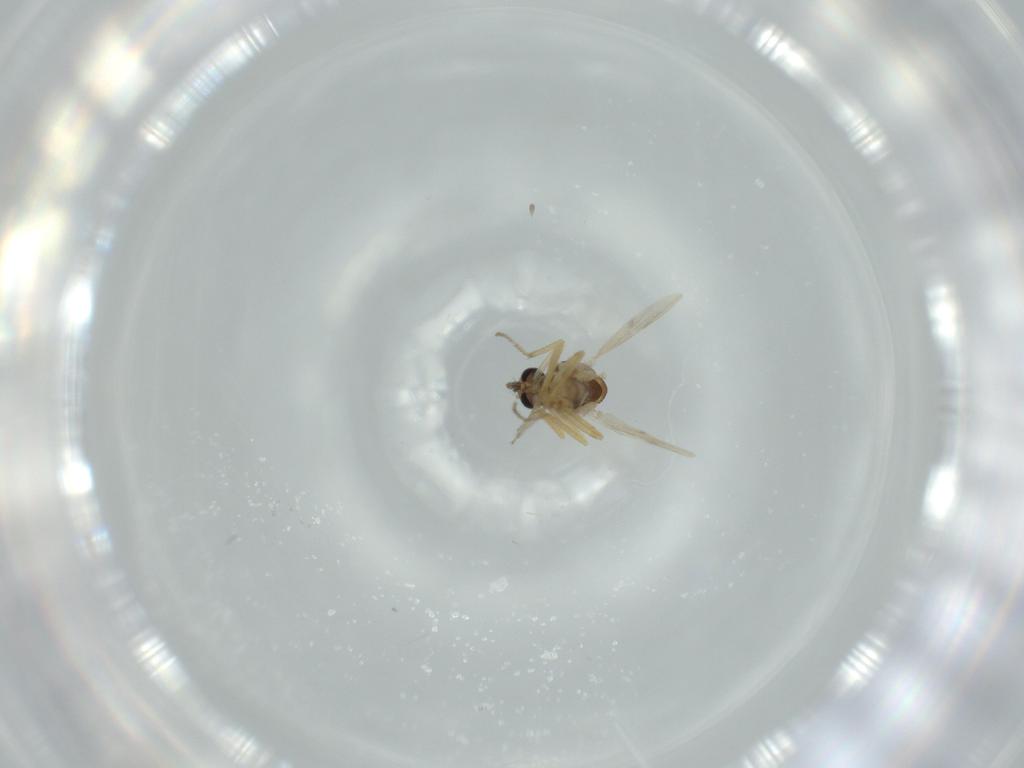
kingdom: Animalia
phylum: Arthropoda
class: Insecta
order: Diptera
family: Ceratopogonidae
